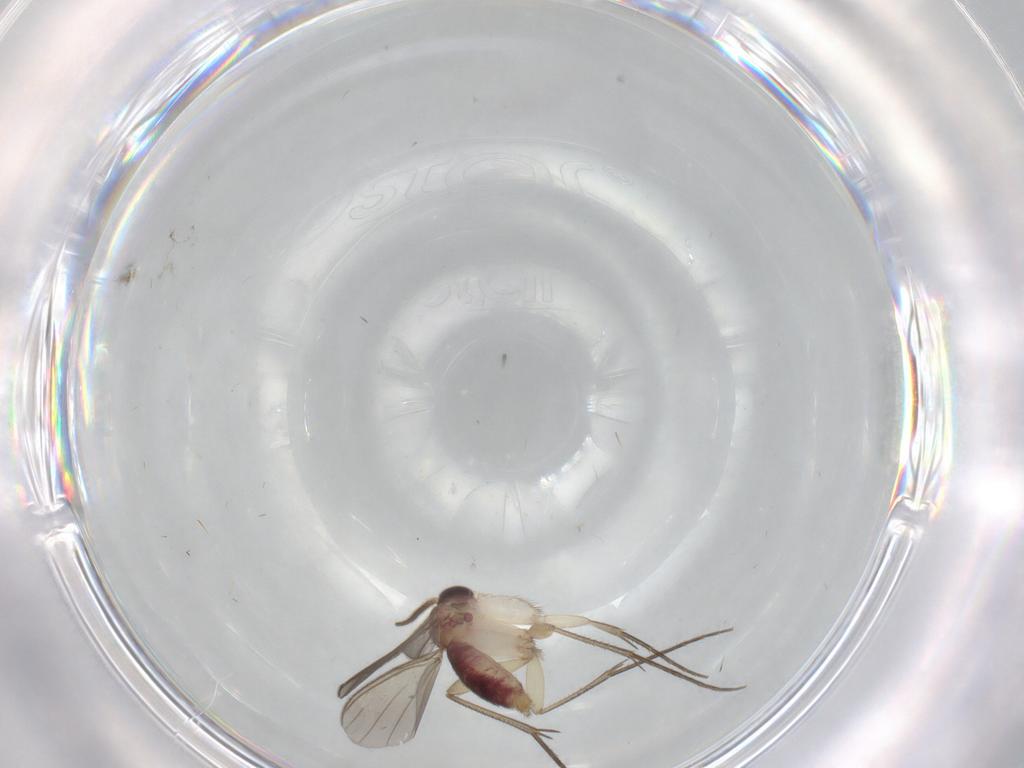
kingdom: Animalia
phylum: Arthropoda
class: Insecta
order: Diptera
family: Mycetophilidae
